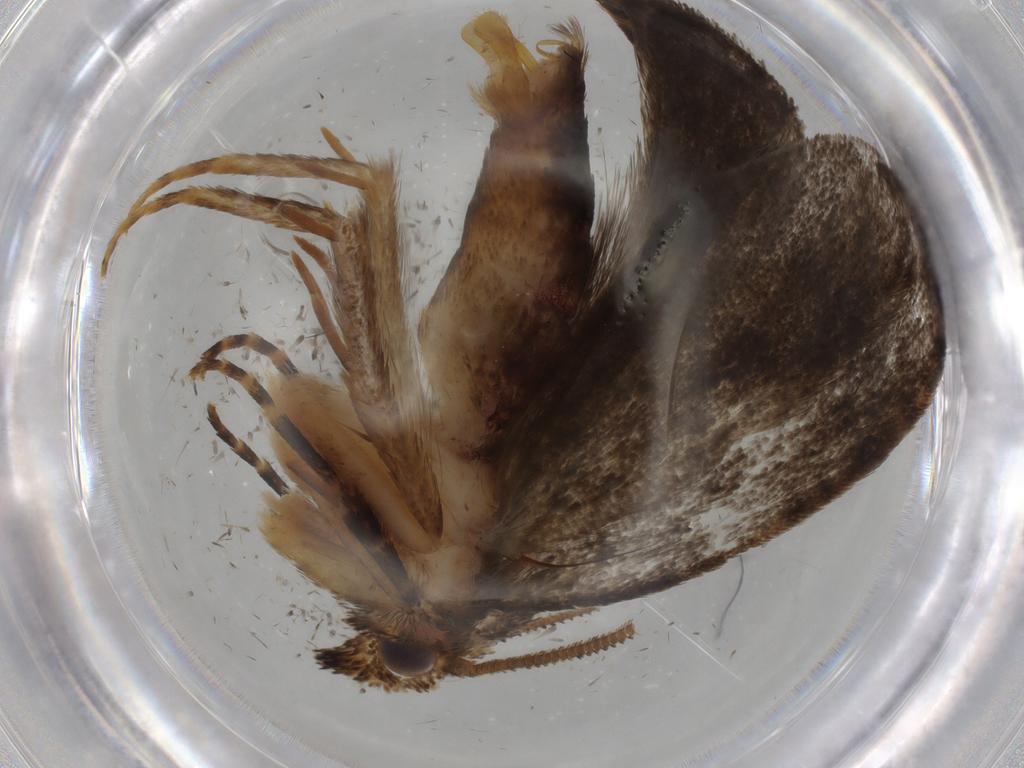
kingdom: Animalia
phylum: Arthropoda
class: Insecta
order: Lepidoptera
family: Tineidae
